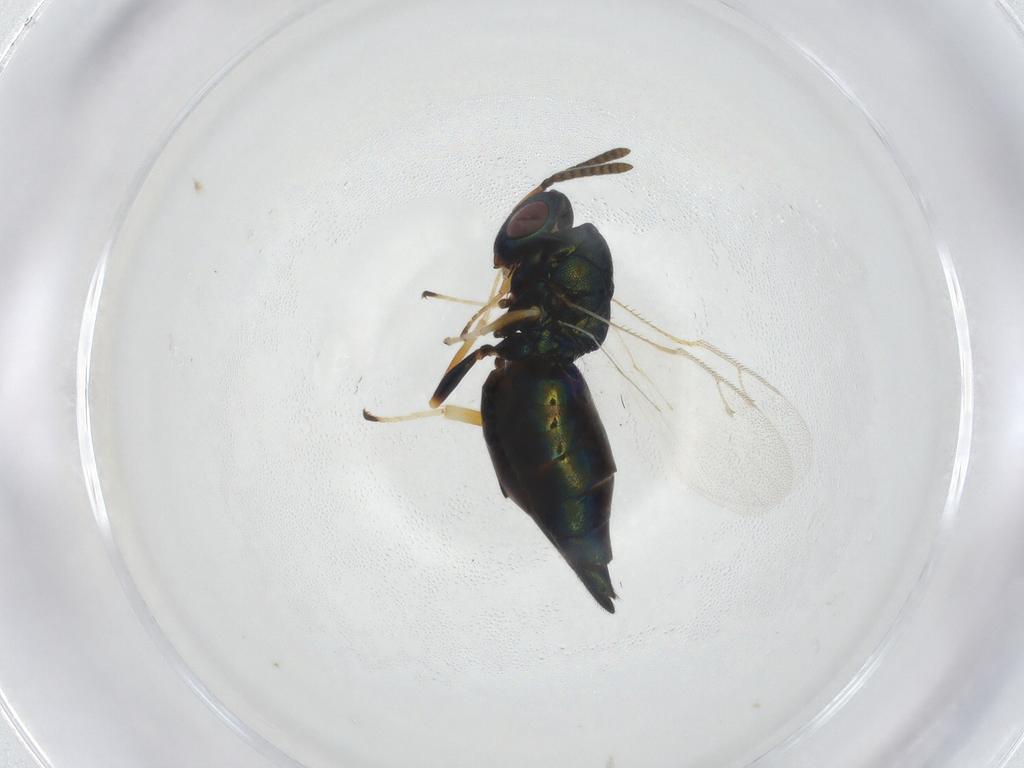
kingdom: Animalia
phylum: Arthropoda
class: Insecta
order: Hymenoptera
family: Pteromalidae
